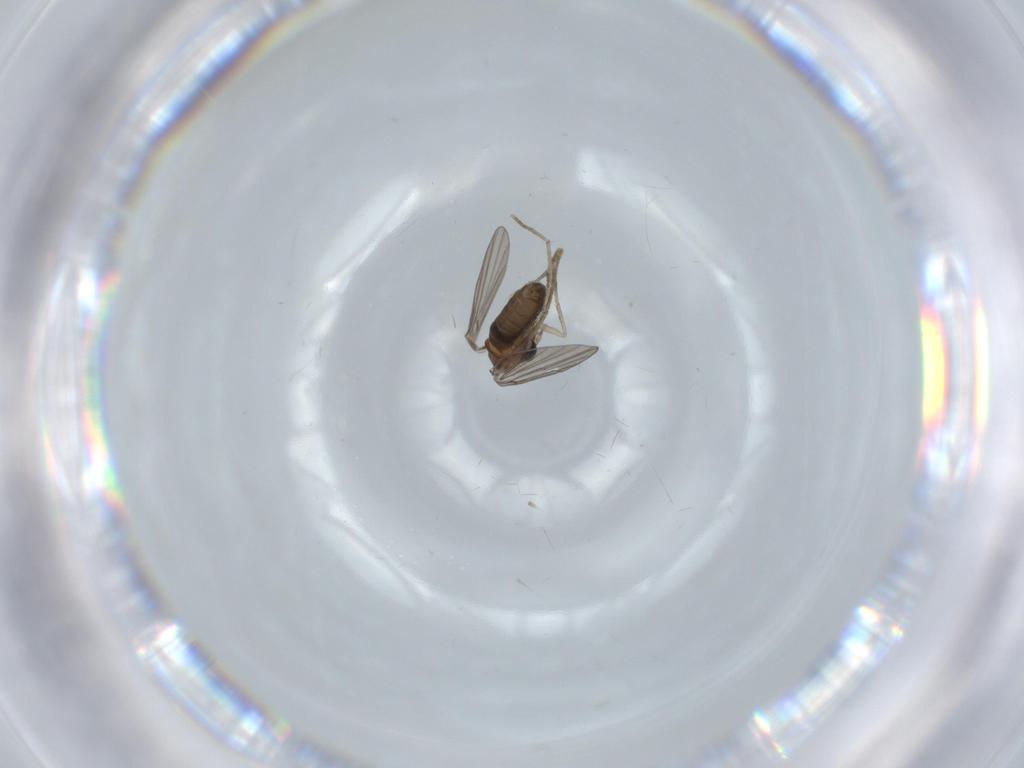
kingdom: Animalia
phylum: Arthropoda
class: Insecta
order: Diptera
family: Psychodidae
